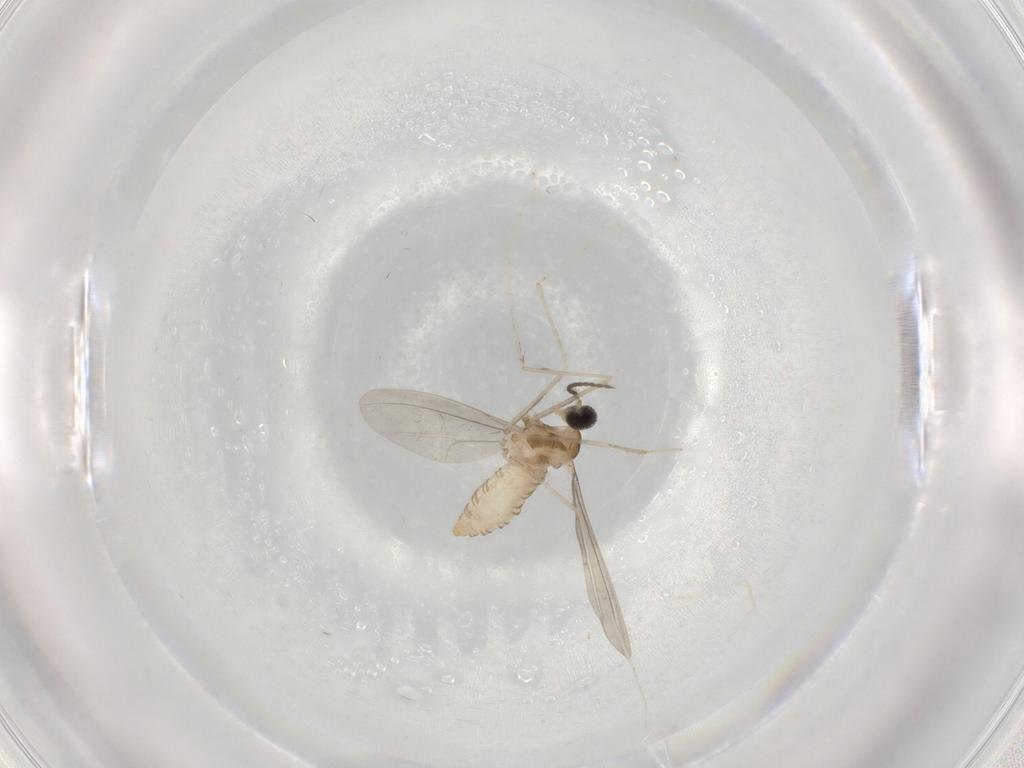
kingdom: Animalia
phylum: Arthropoda
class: Insecta
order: Diptera
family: Cecidomyiidae
